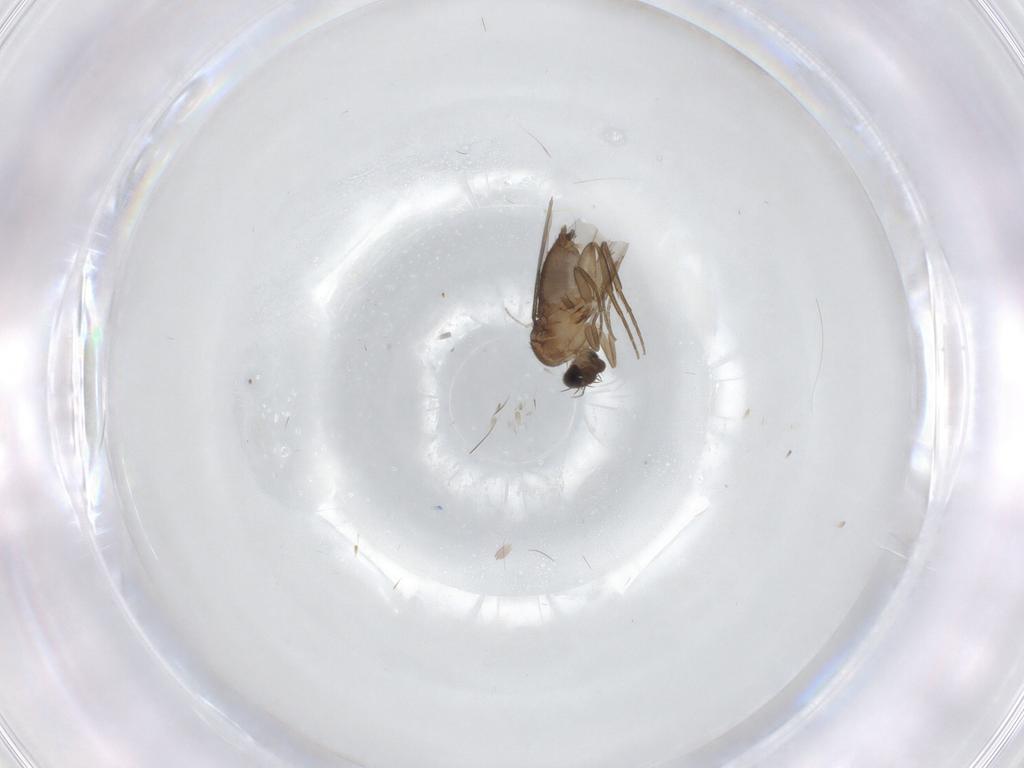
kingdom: Animalia
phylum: Arthropoda
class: Insecta
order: Diptera
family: Phoridae
